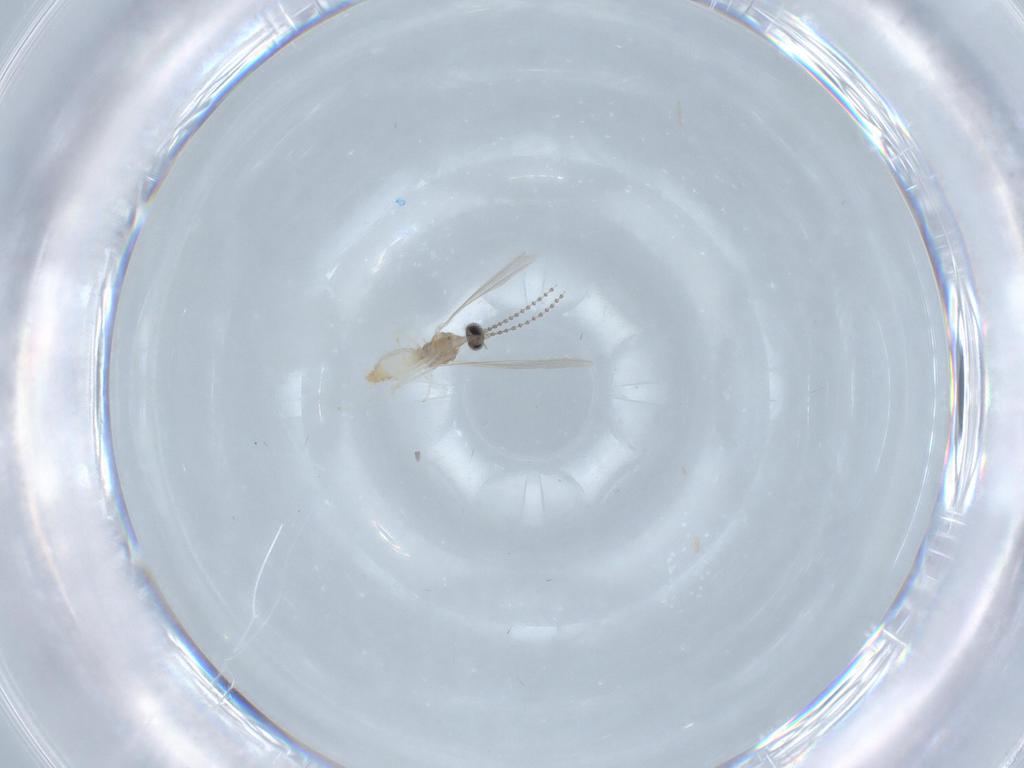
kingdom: Animalia
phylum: Arthropoda
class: Insecta
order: Diptera
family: Cecidomyiidae
